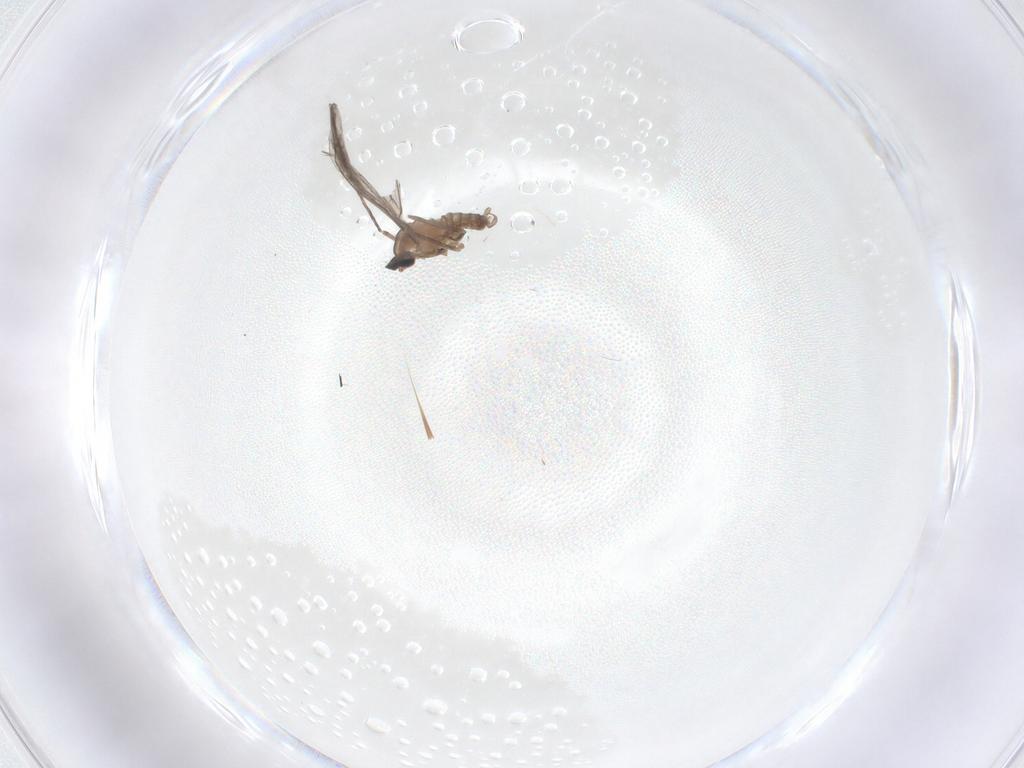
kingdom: Animalia
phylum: Arthropoda
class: Insecta
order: Diptera
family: Cecidomyiidae
